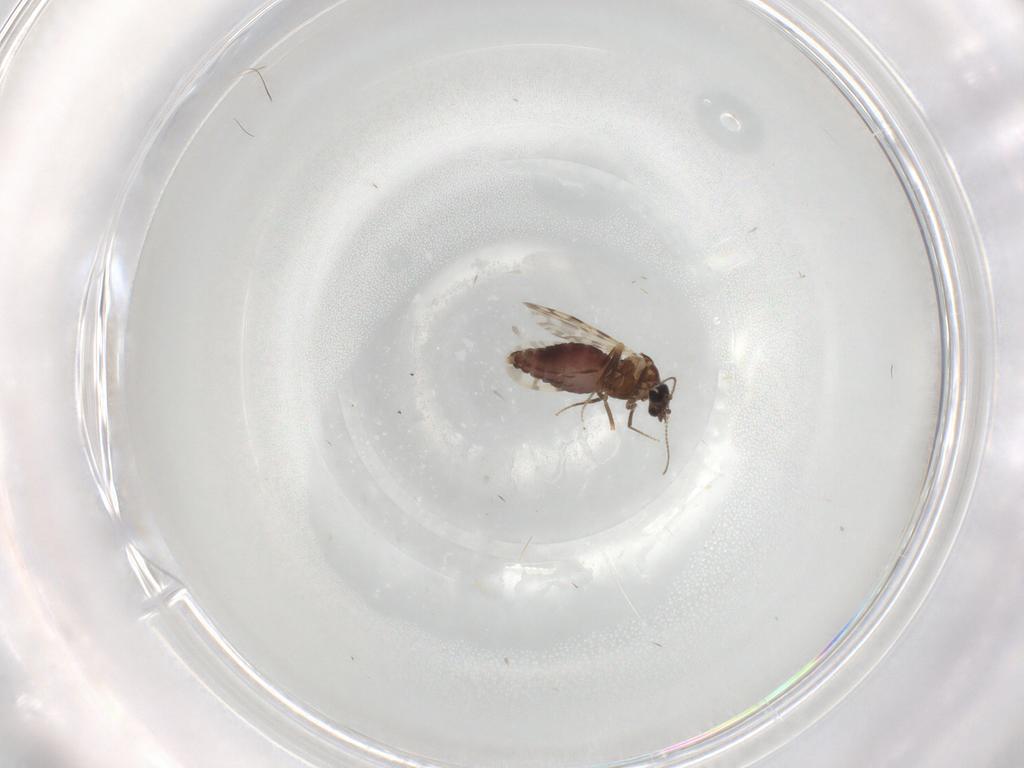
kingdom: Animalia
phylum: Arthropoda
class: Insecta
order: Diptera
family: Limoniidae
